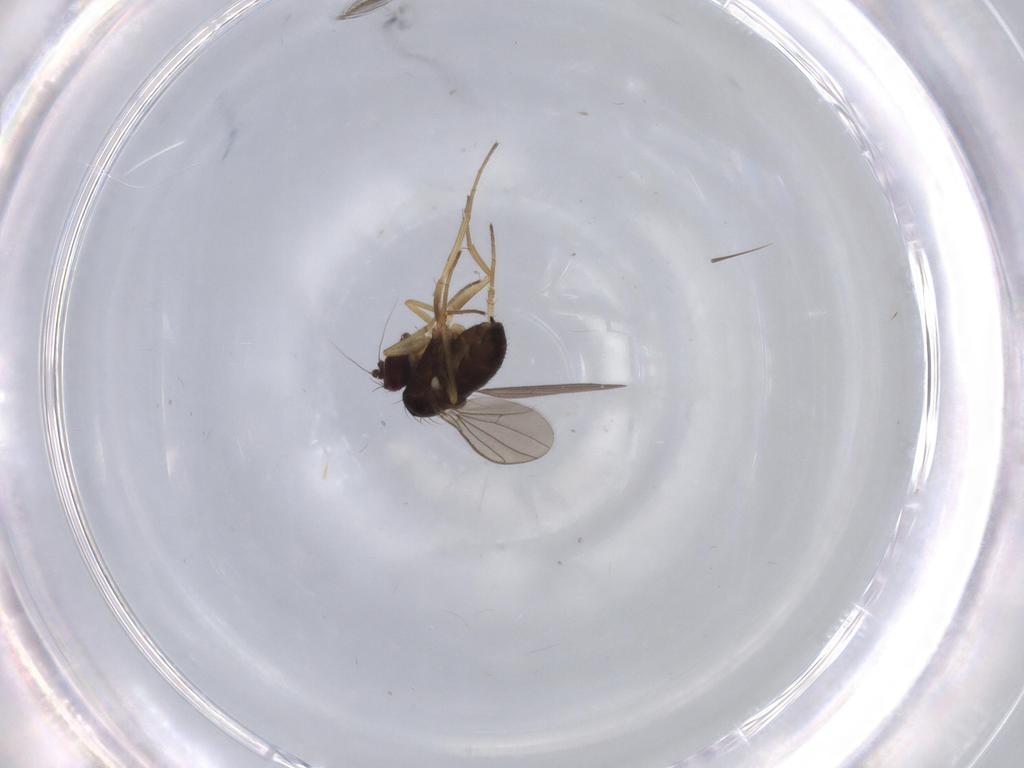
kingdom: Animalia
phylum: Arthropoda
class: Insecta
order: Diptera
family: Dolichopodidae
